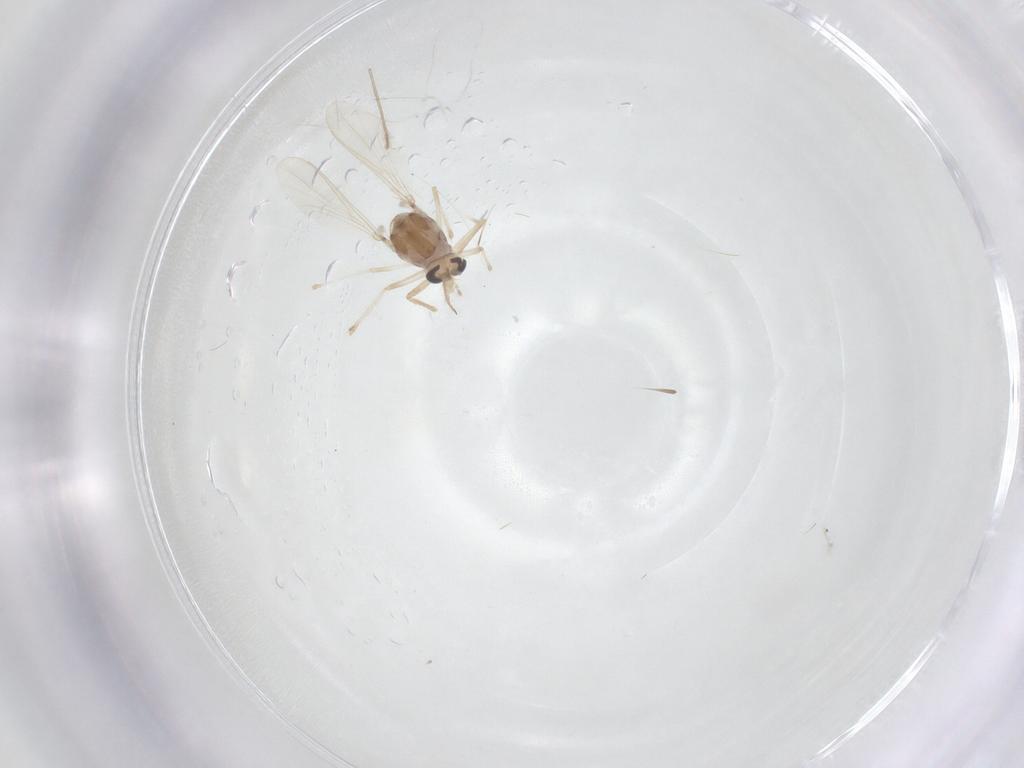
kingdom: Animalia
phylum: Arthropoda
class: Insecta
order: Diptera
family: Chironomidae
